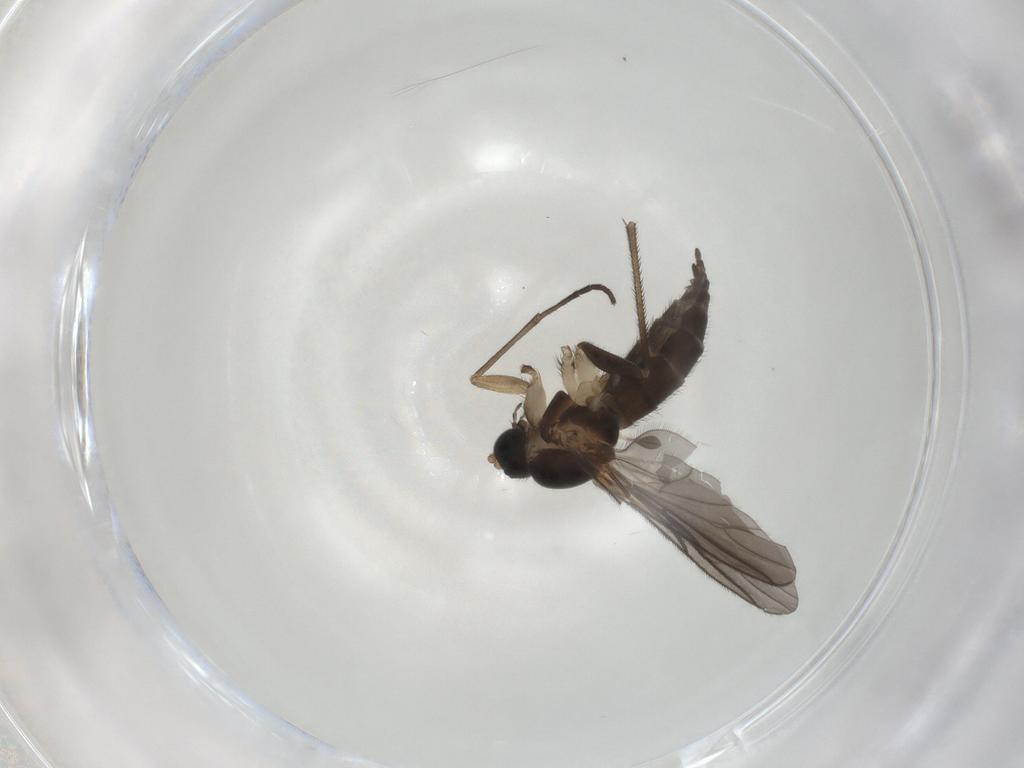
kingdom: Animalia
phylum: Arthropoda
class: Insecta
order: Diptera
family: Sciaridae
